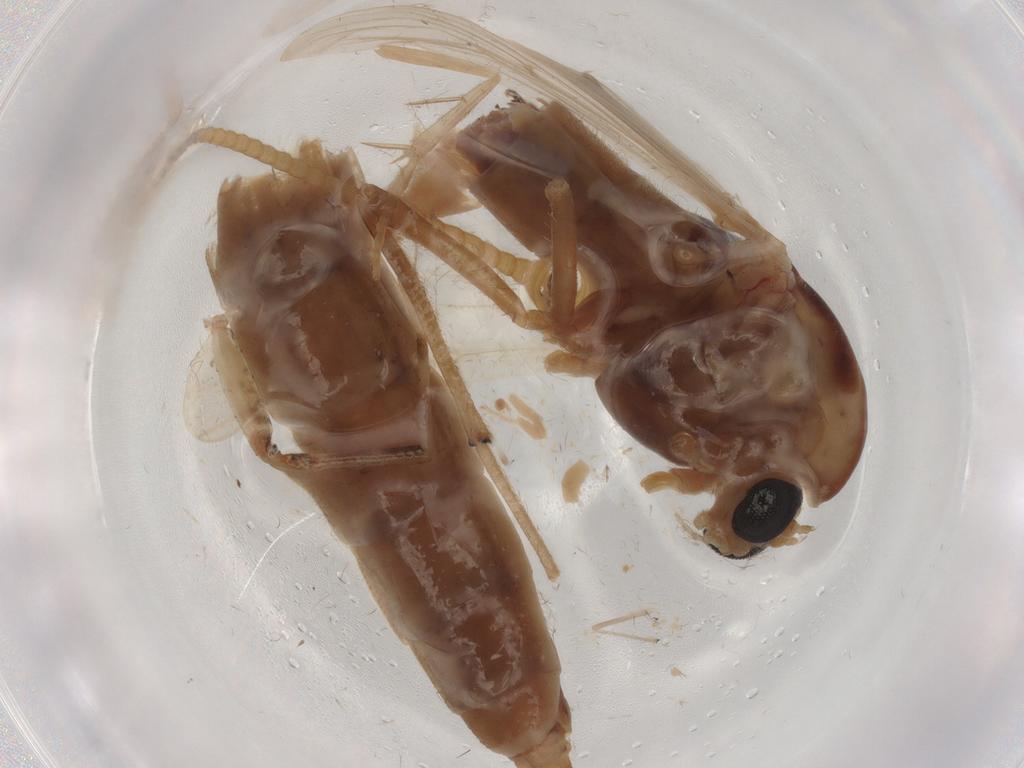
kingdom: Animalia
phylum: Arthropoda
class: Insecta
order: Diptera
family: Chironomidae
